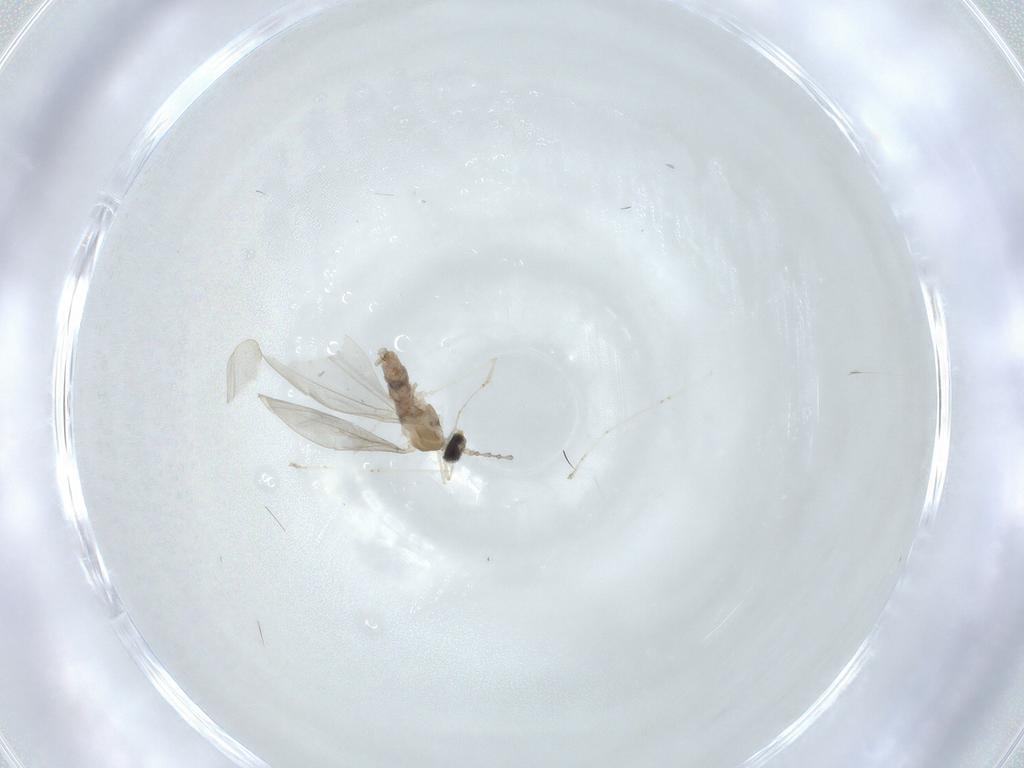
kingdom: Animalia
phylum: Arthropoda
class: Insecta
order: Diptera
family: Cecidomyiidae
